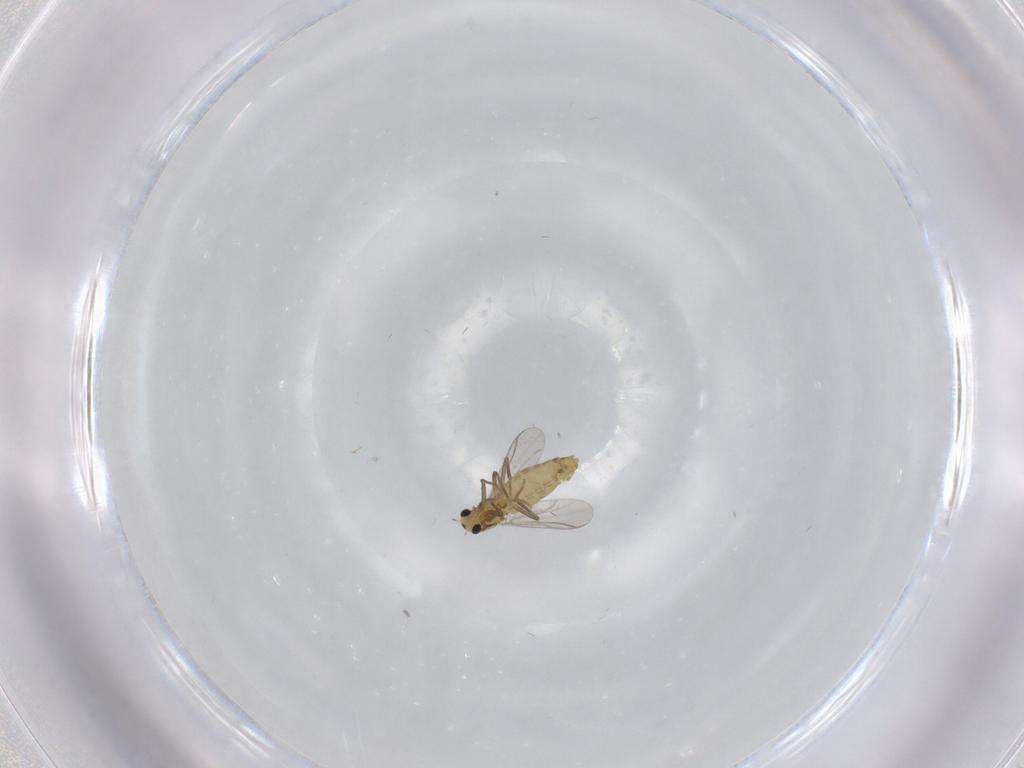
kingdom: Animalia
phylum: Arthropoda
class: Insecta
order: Diptera
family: Chironomidae
